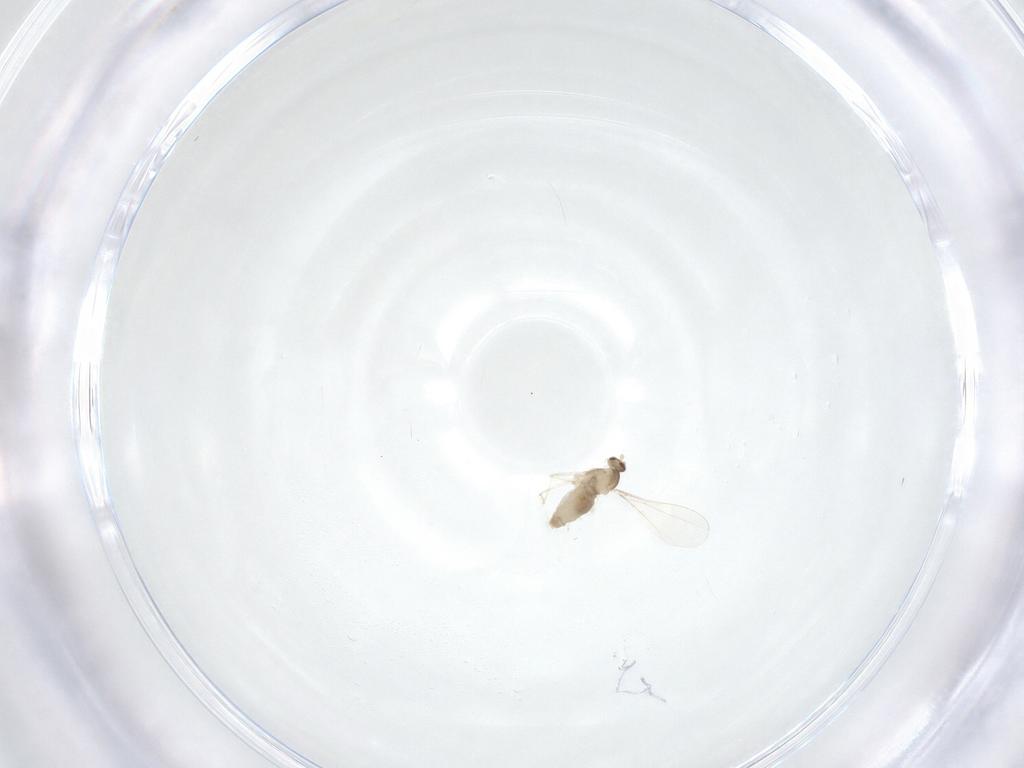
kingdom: Animalia
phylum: Arthropoda
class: Insecta
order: Diptera
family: Cecidomyiidae
